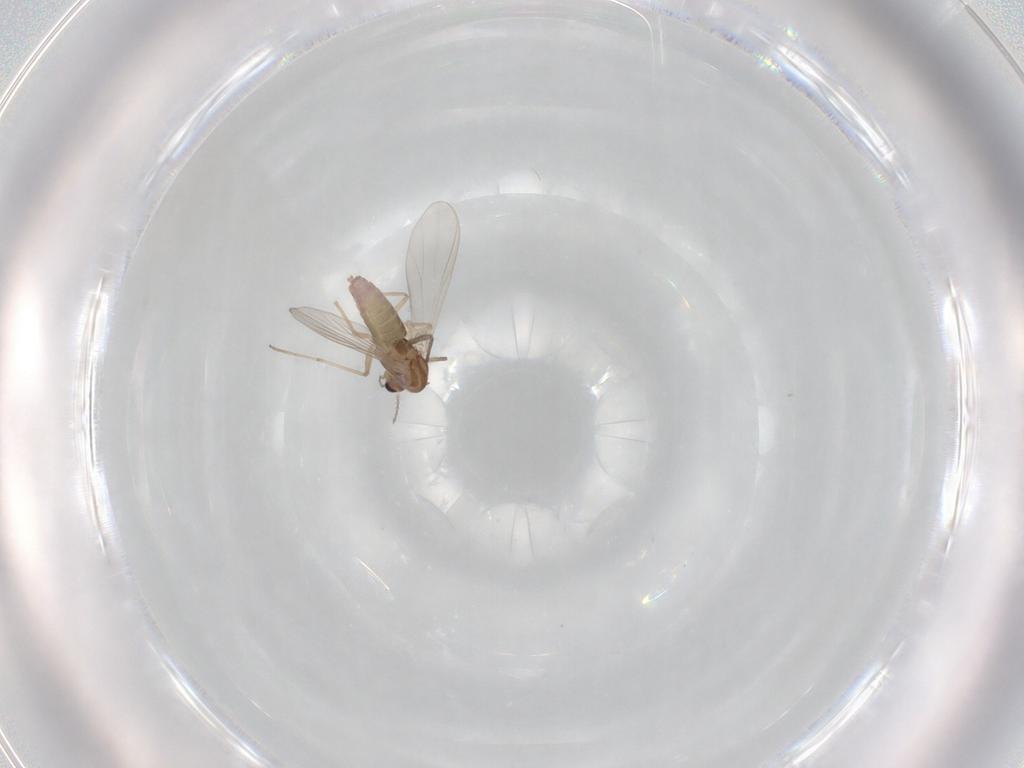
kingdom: Animalia
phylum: Arthropoda
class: Insecta
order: Diptera
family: Chironomidae
